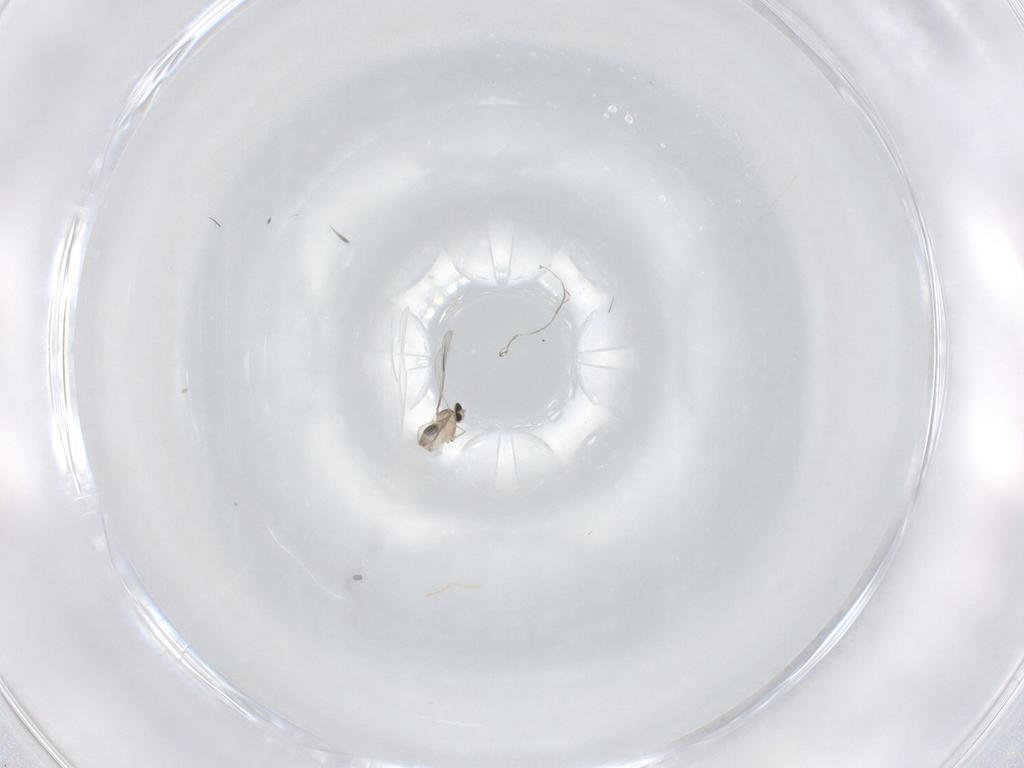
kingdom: Animalia
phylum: Arthropoda
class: Insecta
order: Diptera
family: Cecidomyiidae
